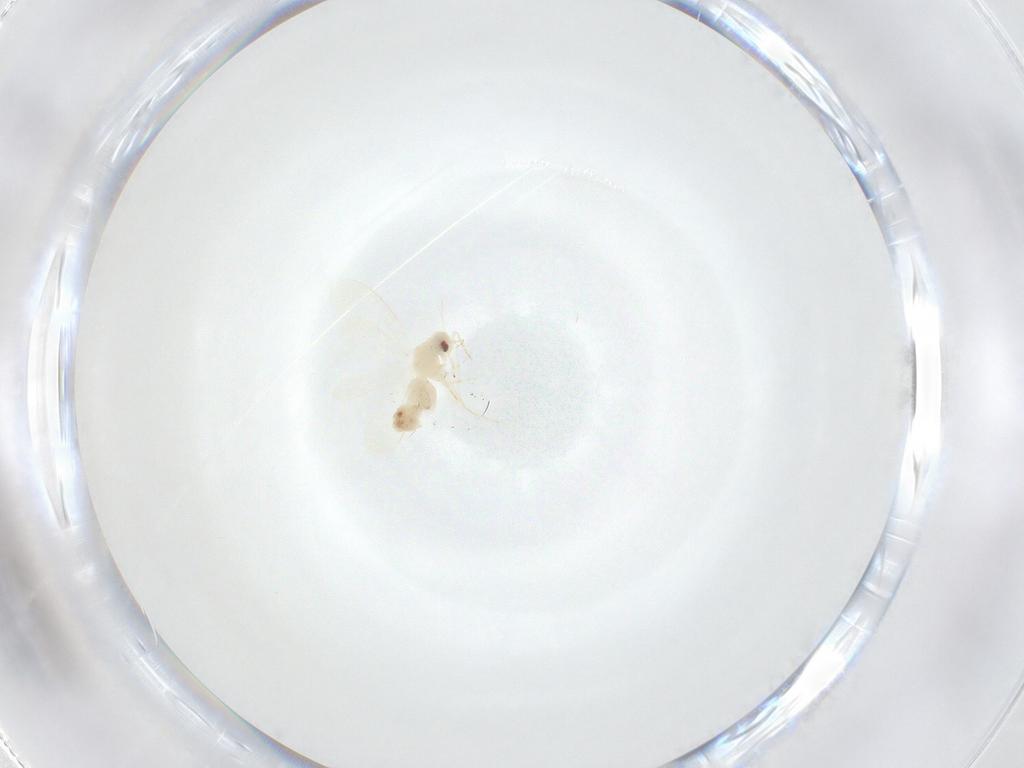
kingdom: Animalia
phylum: Arthropoda
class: Insecta
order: Hemiptera
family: Aleyrodidae
